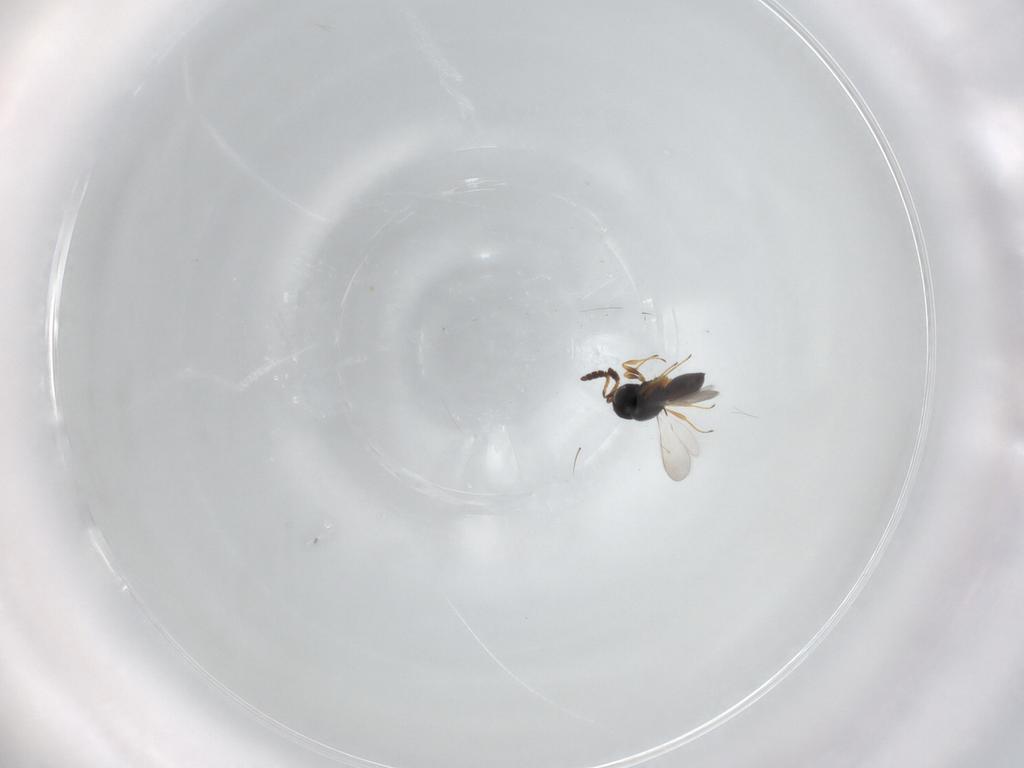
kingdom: Animalia
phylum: Arthropoda
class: Insecta
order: Hymenoptera
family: Scelionidae
